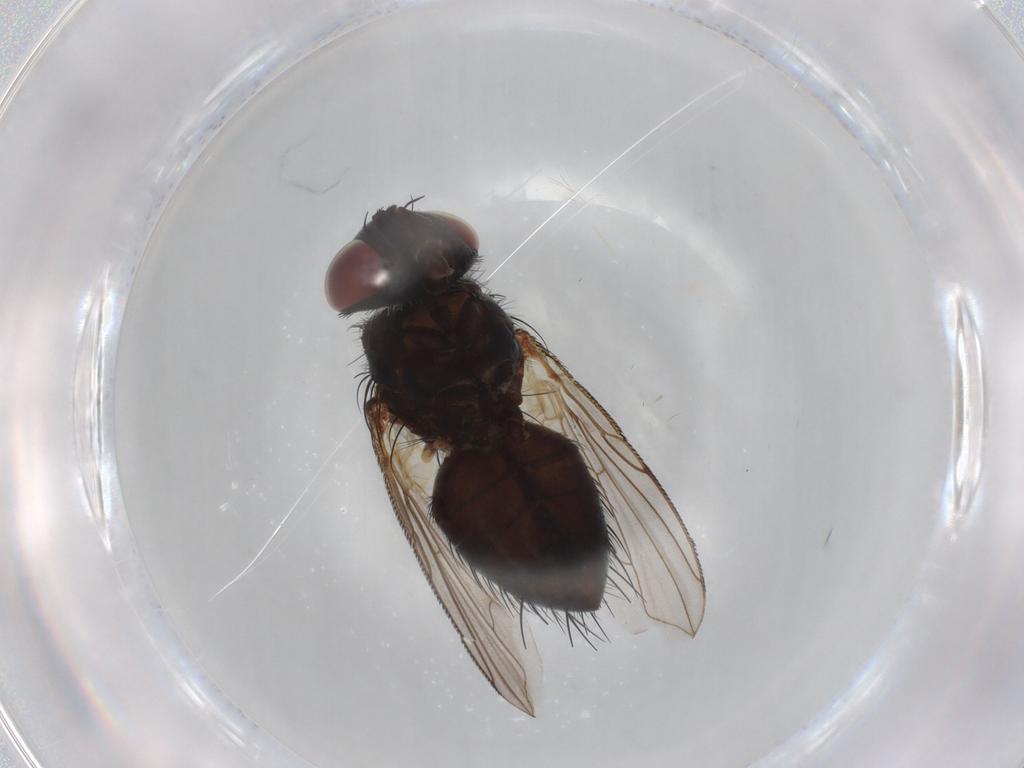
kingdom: Animalia
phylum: Arthropoda
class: Insecta
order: Diptera
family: Tachinidae
